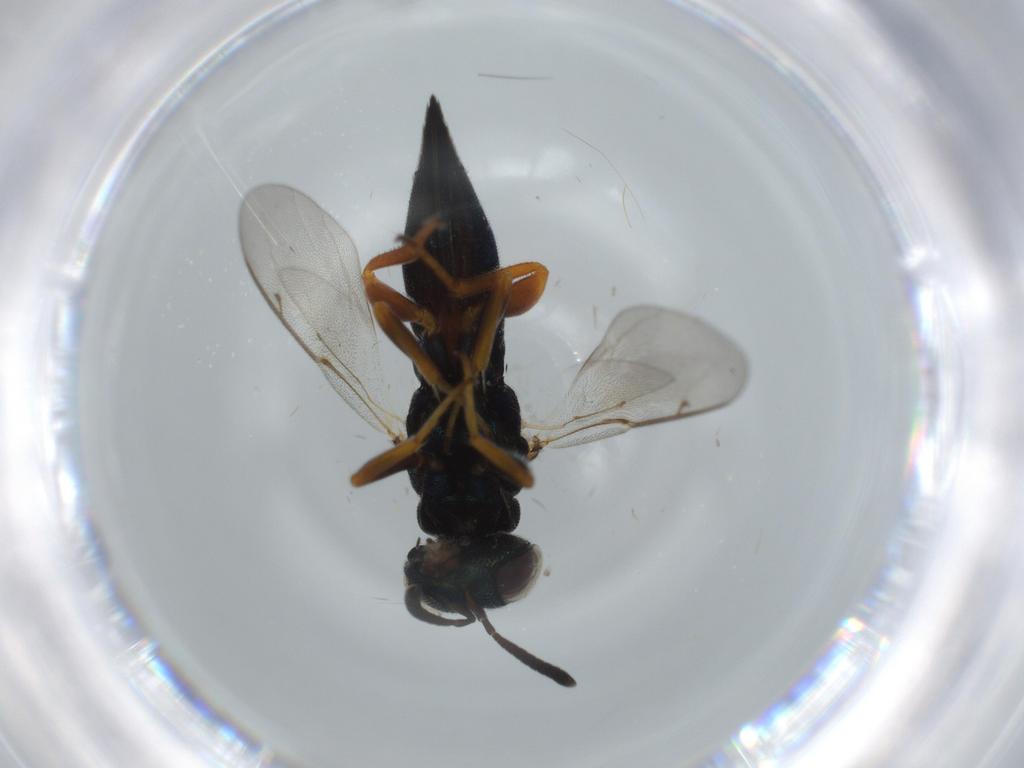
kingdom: Animalia
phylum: Arthropoda
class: Insecta
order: Hymenoptera
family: Lyciscidae
